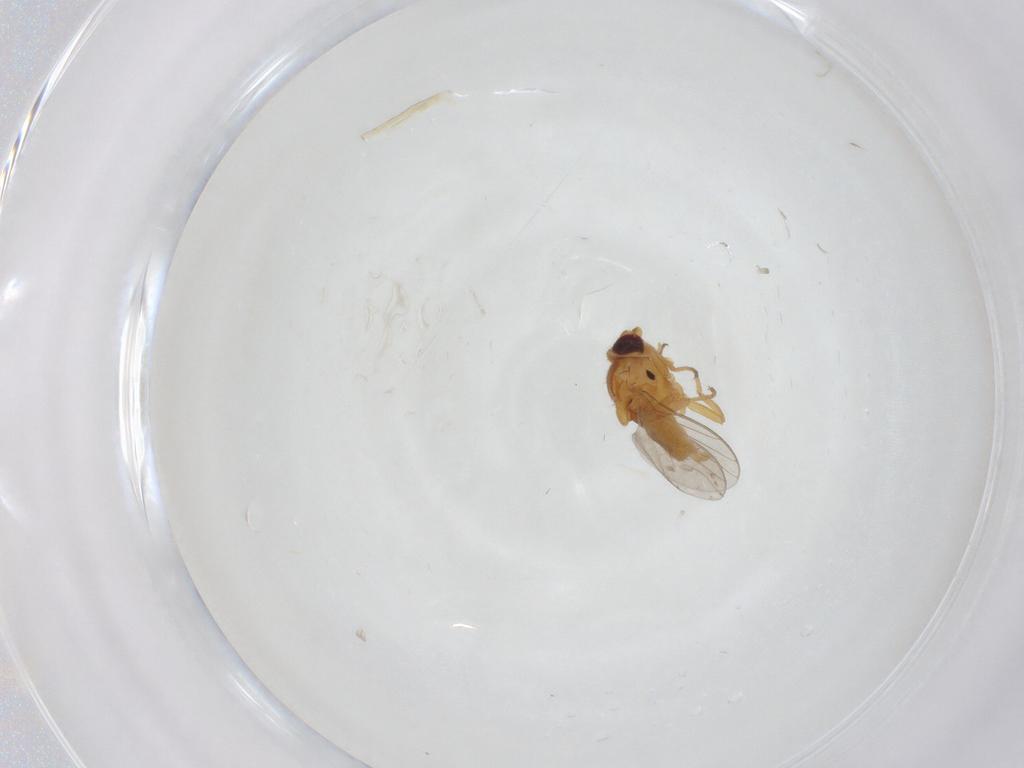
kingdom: Animalia
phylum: Arthropoda
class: Insecta
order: Diptera
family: Chloropidae
